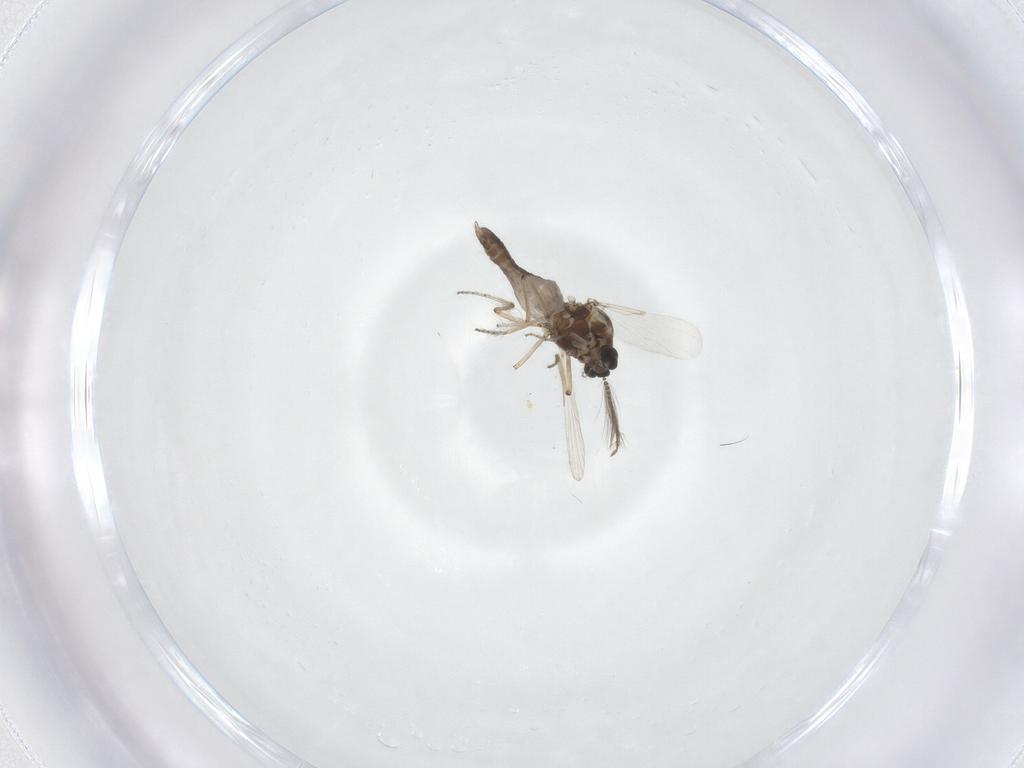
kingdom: Animalia
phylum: Arthropoda
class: Insecta
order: Diptera
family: Ceratopogonidae
